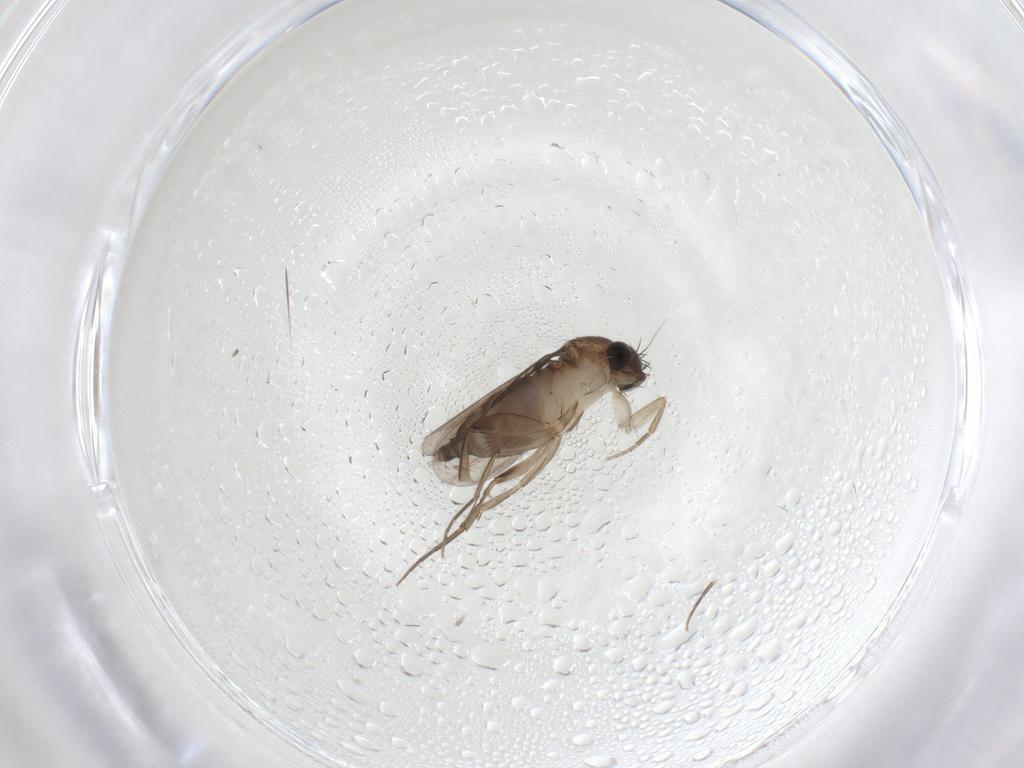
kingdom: Animalia
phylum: Arthropoda
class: Insecta
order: Diptera
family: Phoridae
